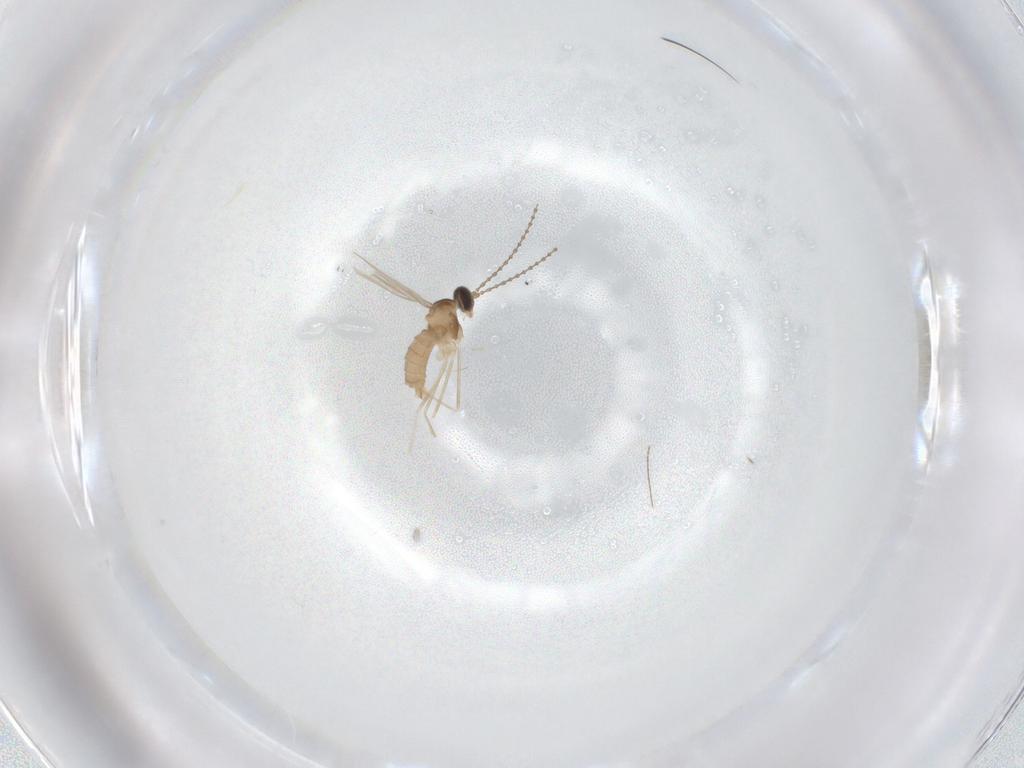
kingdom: Animalia
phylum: Arthropoda
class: Insecta
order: Diptera
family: Cecidomyiidae
